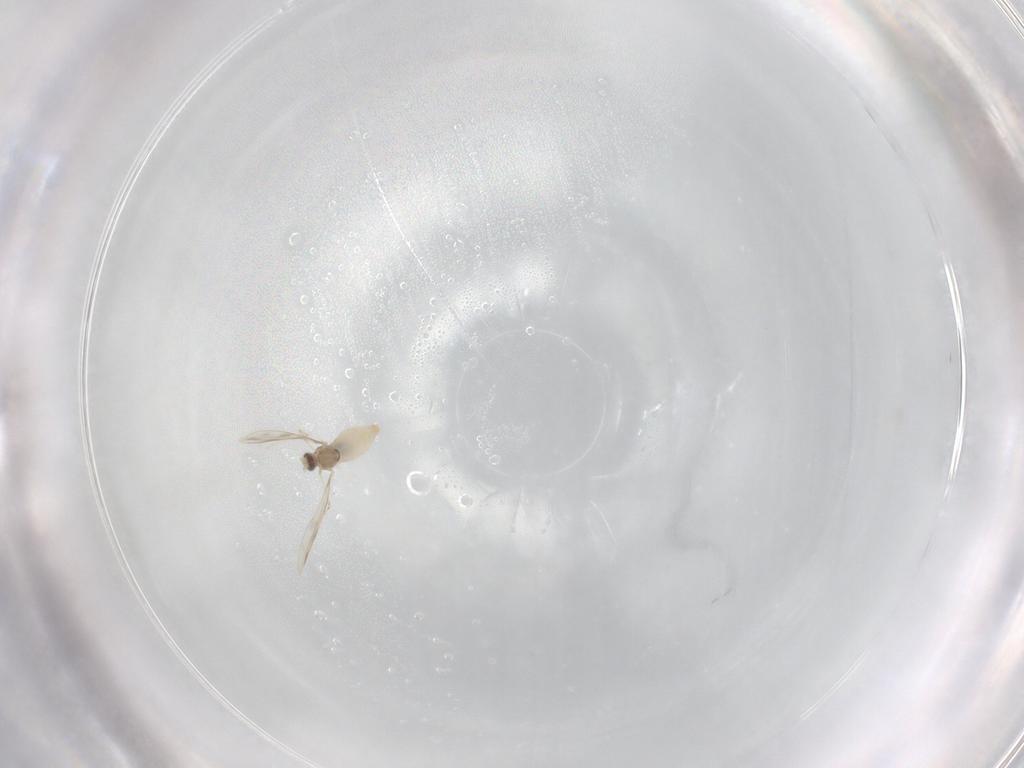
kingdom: Animalia
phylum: Arthropoda
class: Insecta
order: Diptera
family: Cecidomyiidae
